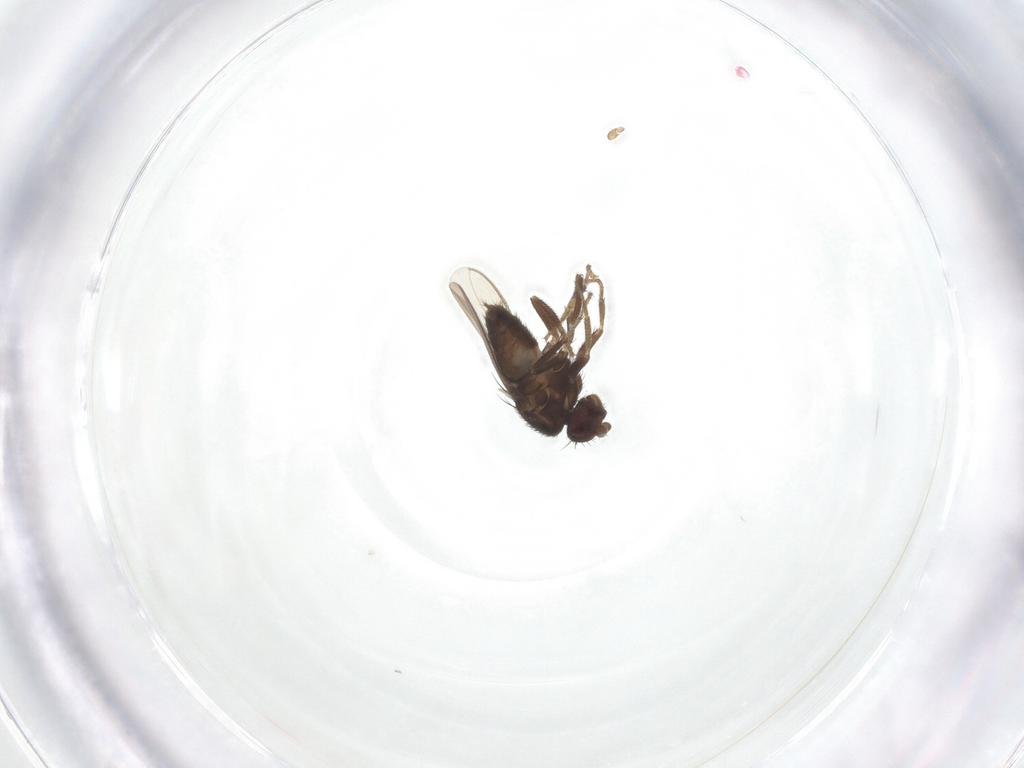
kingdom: Animalia
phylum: Arthropoda
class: Insecta
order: Diptera
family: Sphaeroceridae
